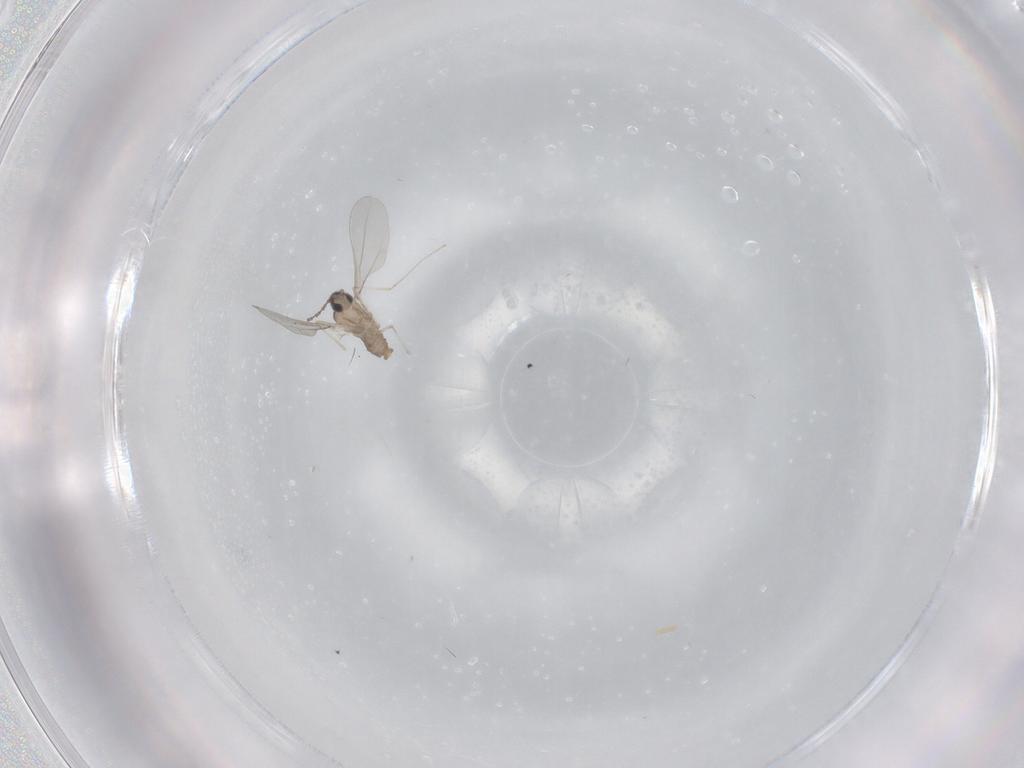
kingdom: Animalia
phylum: Arthropoda
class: Insecta
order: Diptera
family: Cecidomyiidae
